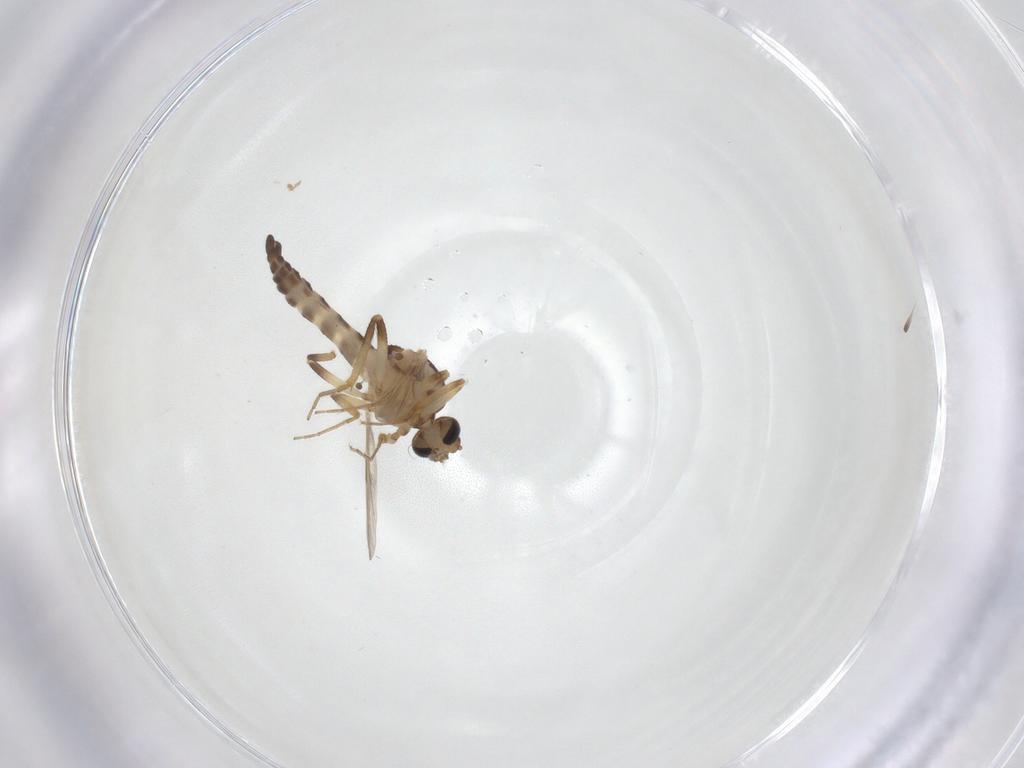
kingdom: Animalia
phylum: Arthropoda
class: Insecta
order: Diptera
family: Ceratopogonidae
